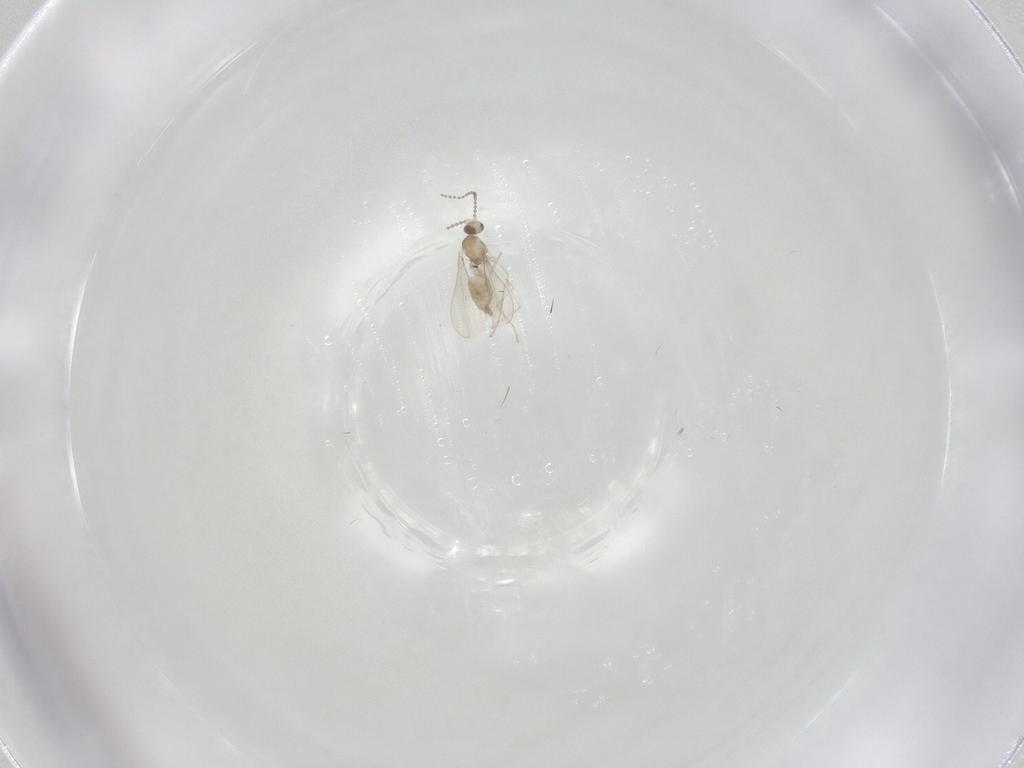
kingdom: Animalia
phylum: Arthropoda
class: Insecta
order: Diptera
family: Cecidomyiidae
